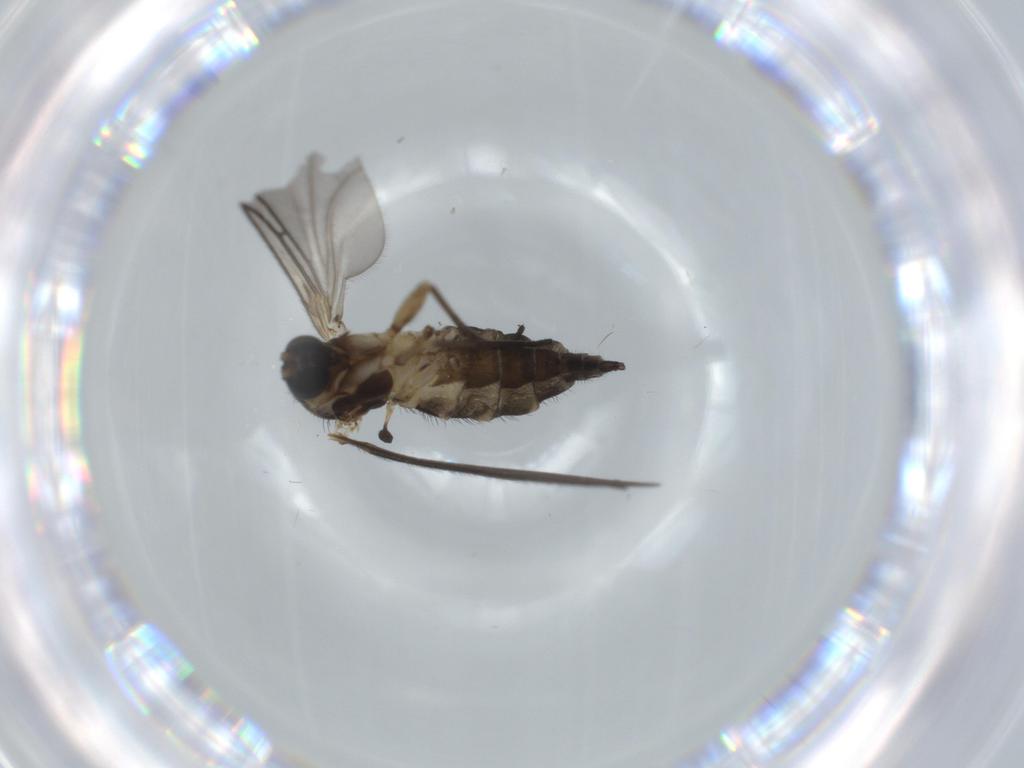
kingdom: Animalia
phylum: Arthropoda
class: Insecta
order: Diptera
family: Sciaridae
